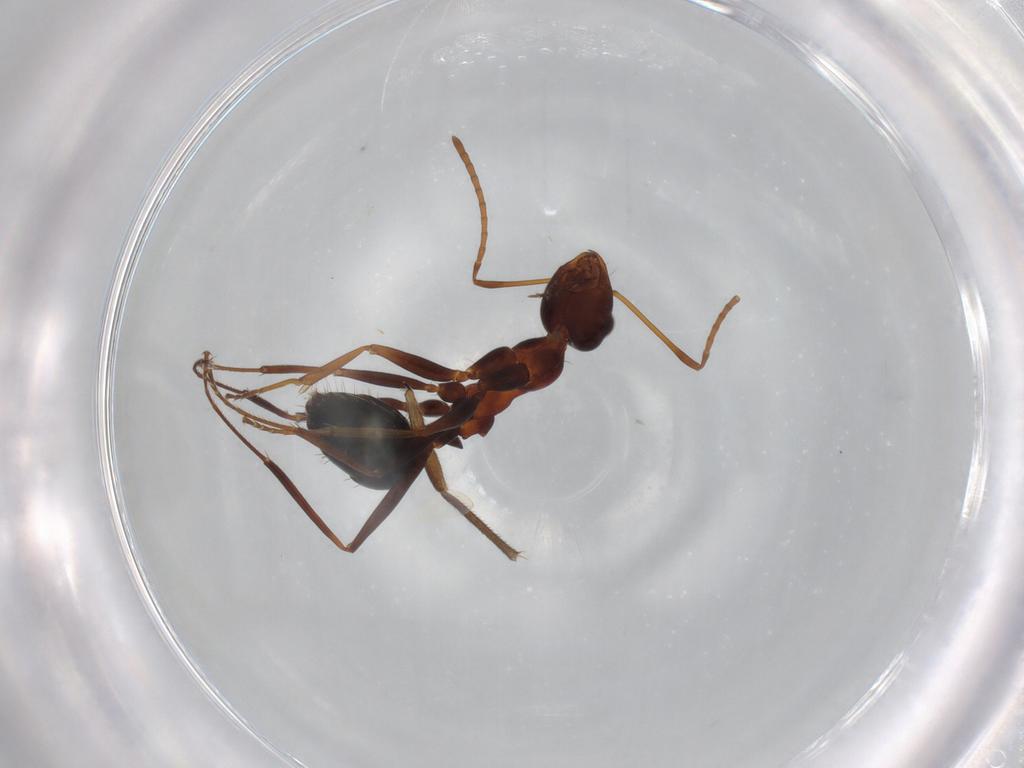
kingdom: Animalia
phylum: Arthropoda
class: Insecta
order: Hymenoptera
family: Formicidae
